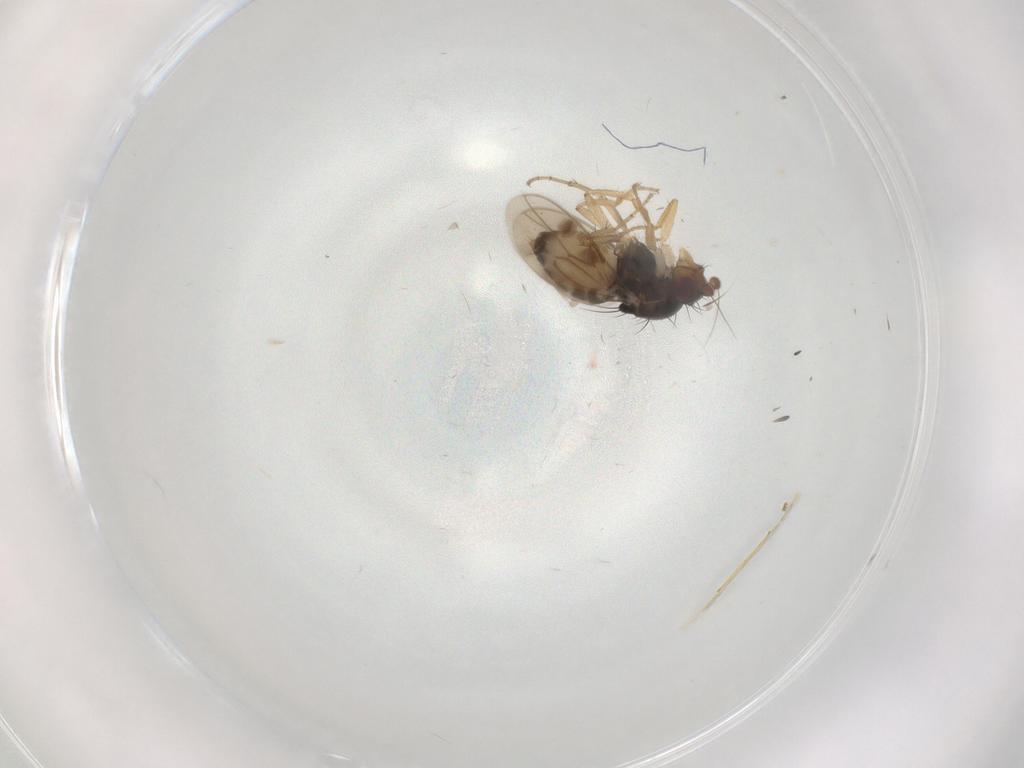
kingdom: Animalia
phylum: Arthropoda
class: Insecta
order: Diptera
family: Sphaeroceridae
